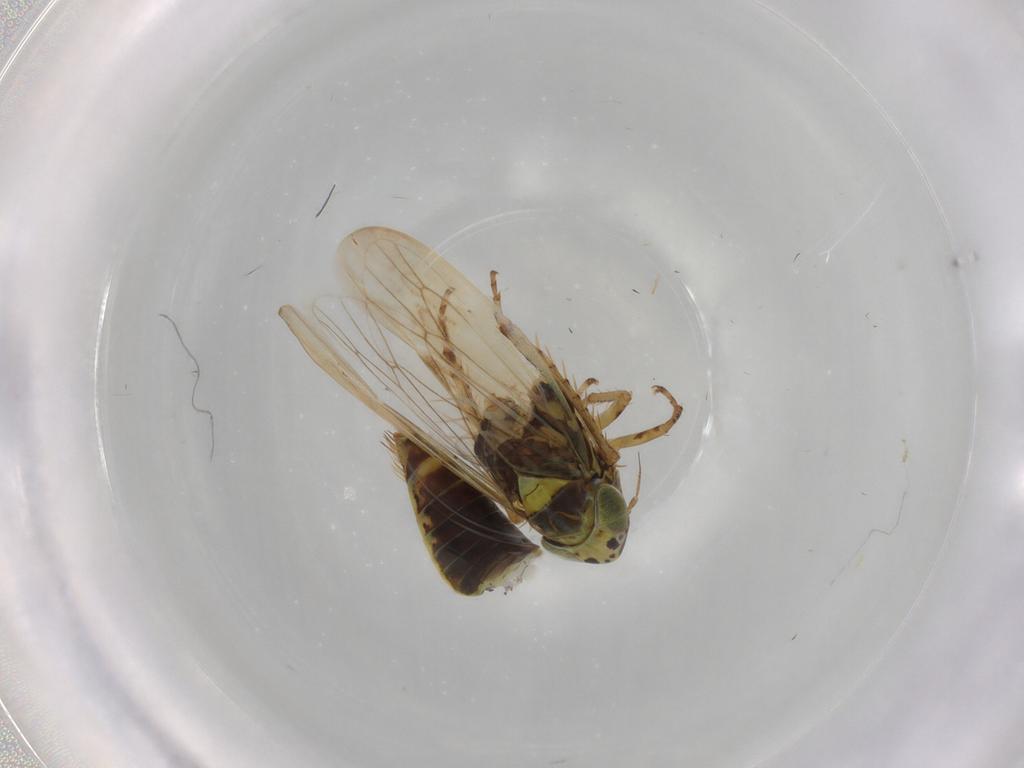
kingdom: Animalia
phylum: Arthropoda
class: Insecta
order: Hemiptera
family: Cicadellidae
